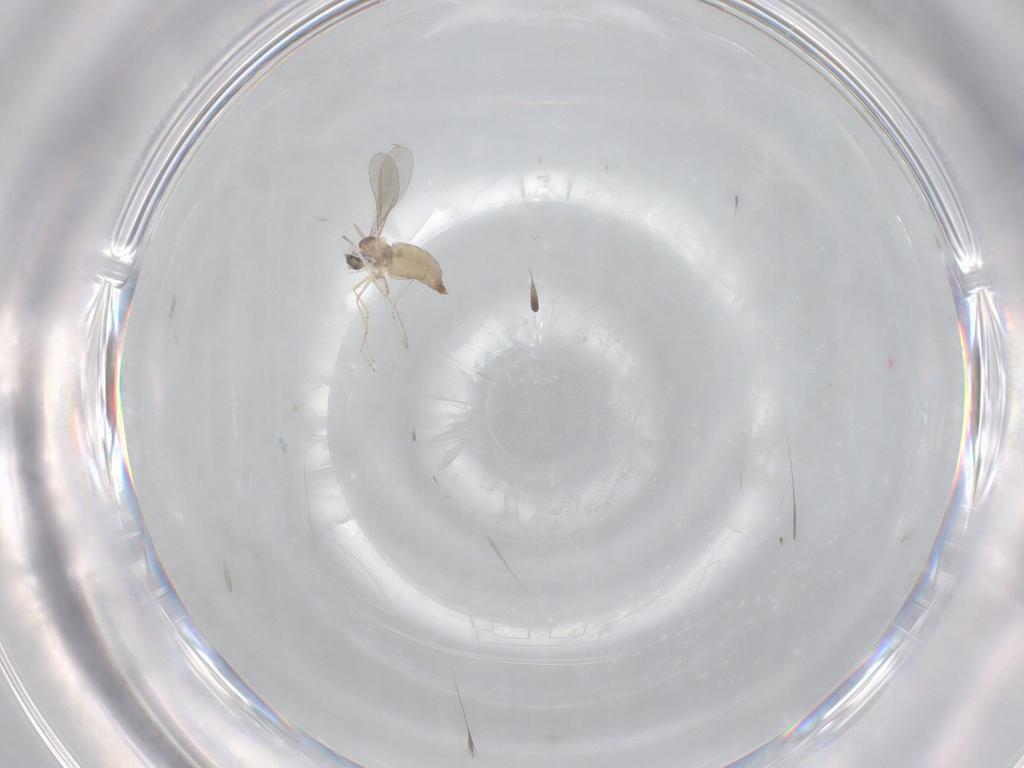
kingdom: Animalia
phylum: Arthropoda
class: Insecta
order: Diptera
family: Cecidomyiidae
